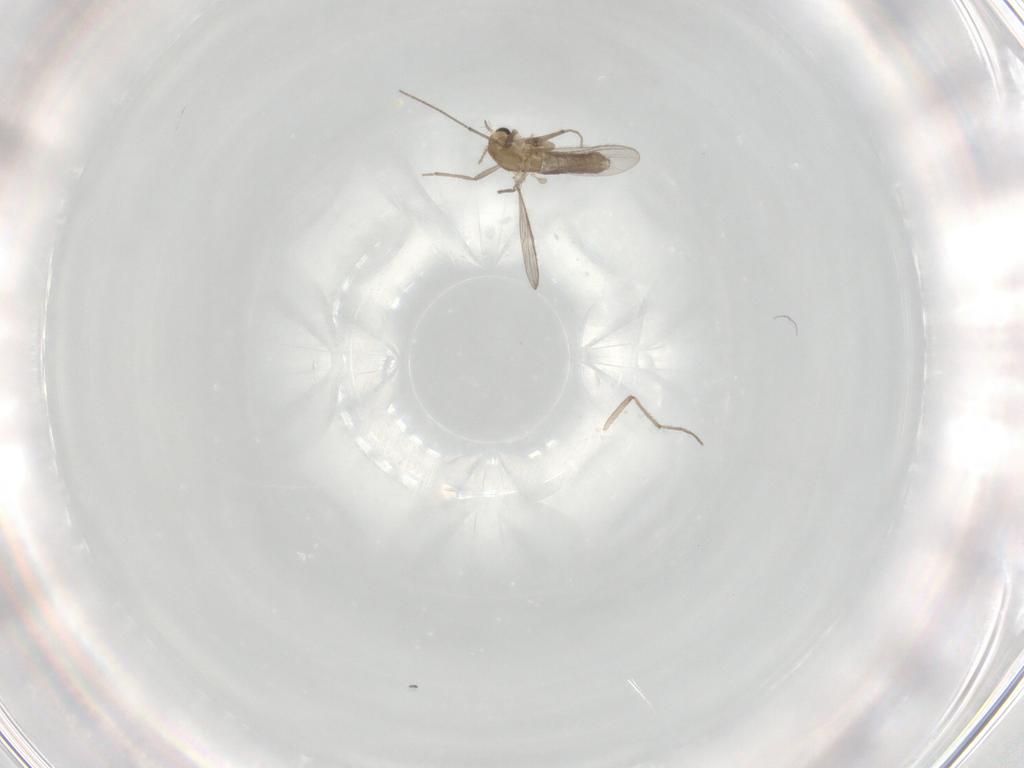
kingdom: Animalia
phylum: Arthropoda
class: Insecta
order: Diptera
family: Chironomidae
